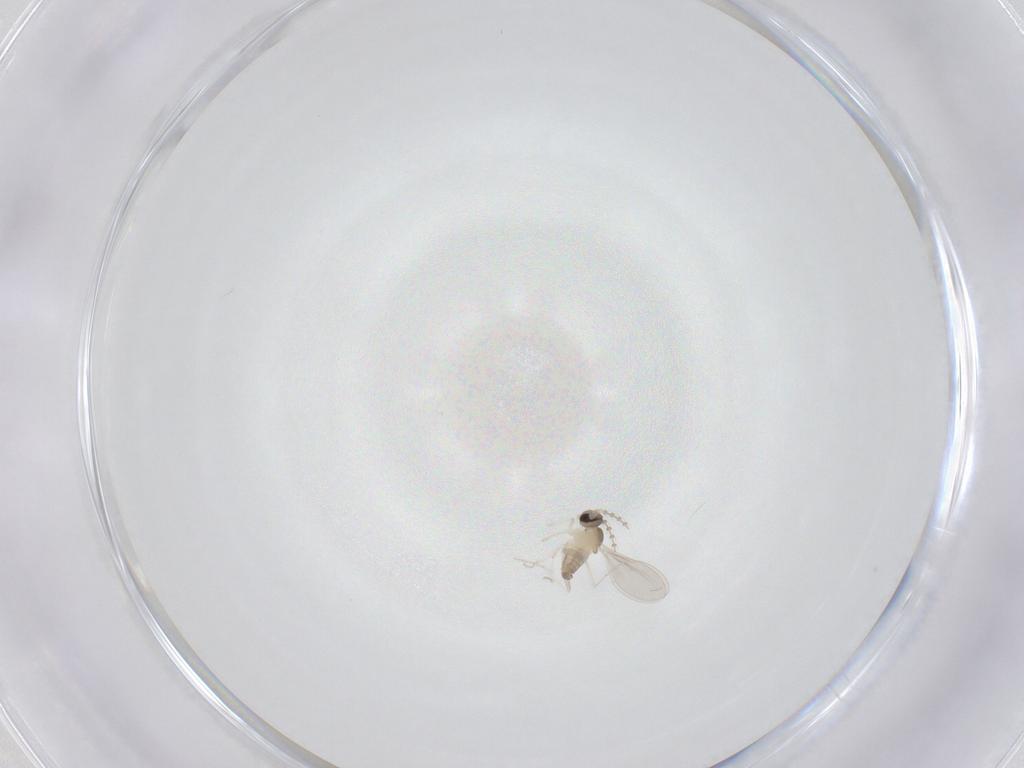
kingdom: Animalia
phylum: Arthropoda
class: Insecta
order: Diptera
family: Cecidomyiidae
